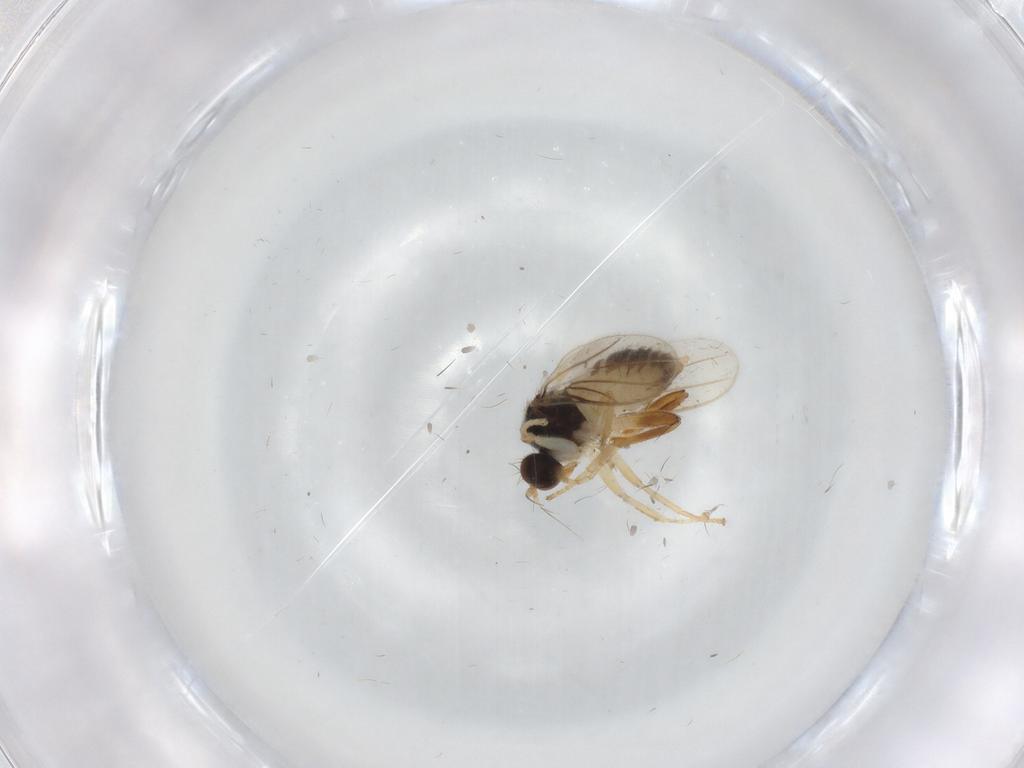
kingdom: Animalia
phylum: Arthropoda
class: Insecta
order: Diptera
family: Hybotidae
